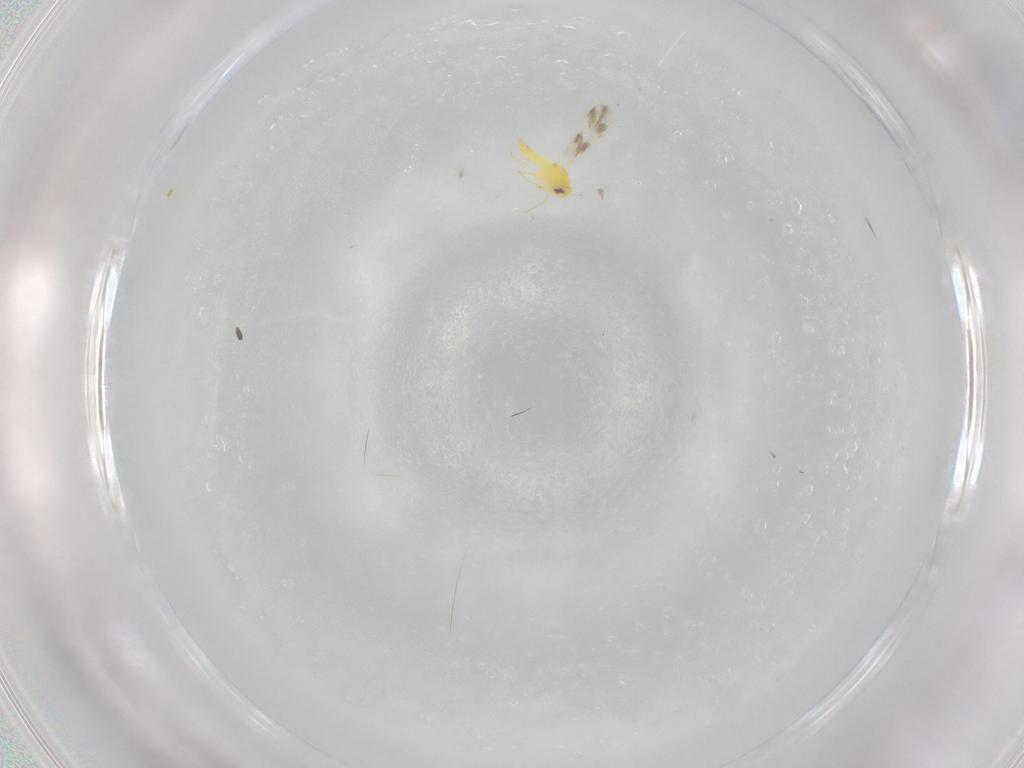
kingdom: Animalia
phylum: Arthropoda
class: Insecta
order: Hemiptera
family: Aleyrodidae
